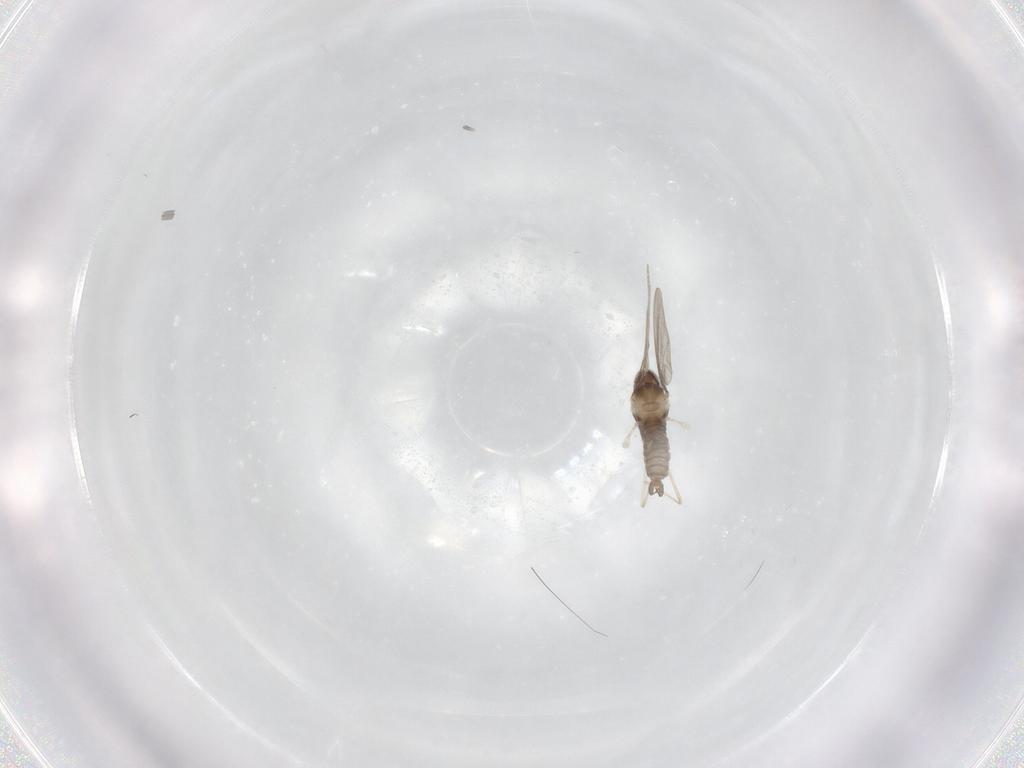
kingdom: Animalia
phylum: Arthropoda
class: Insecta
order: Diptera
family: Cecidomyiidae
